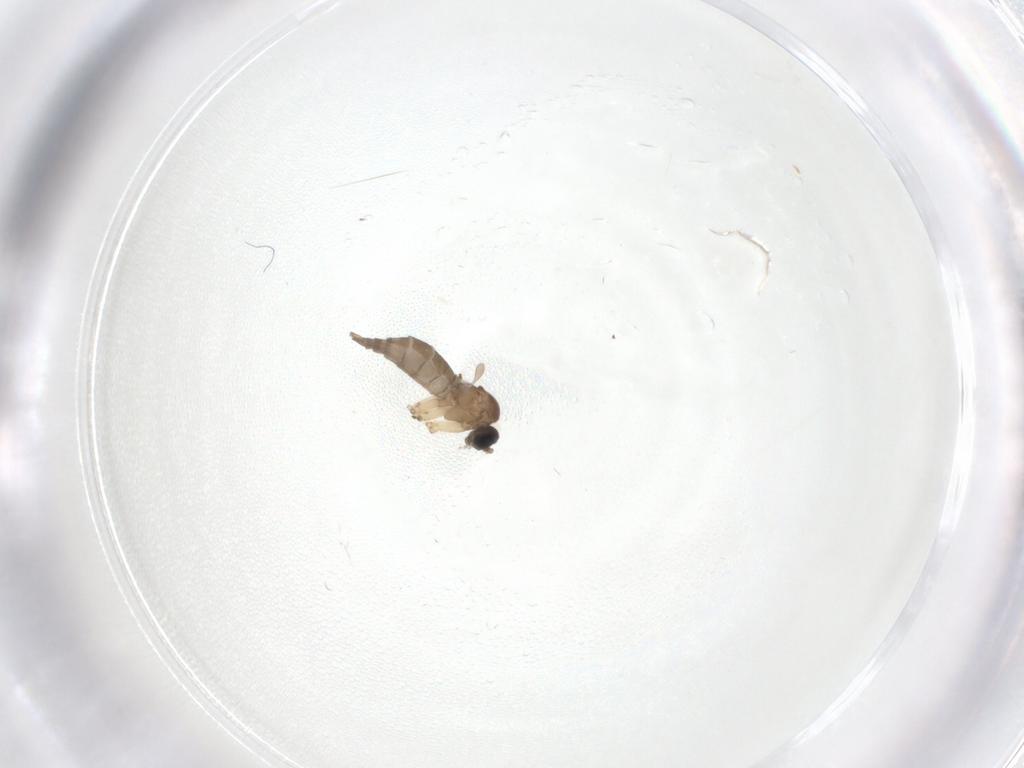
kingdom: Animalia
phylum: Arthropoda
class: Insecta
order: Diptera
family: Sciaridae
